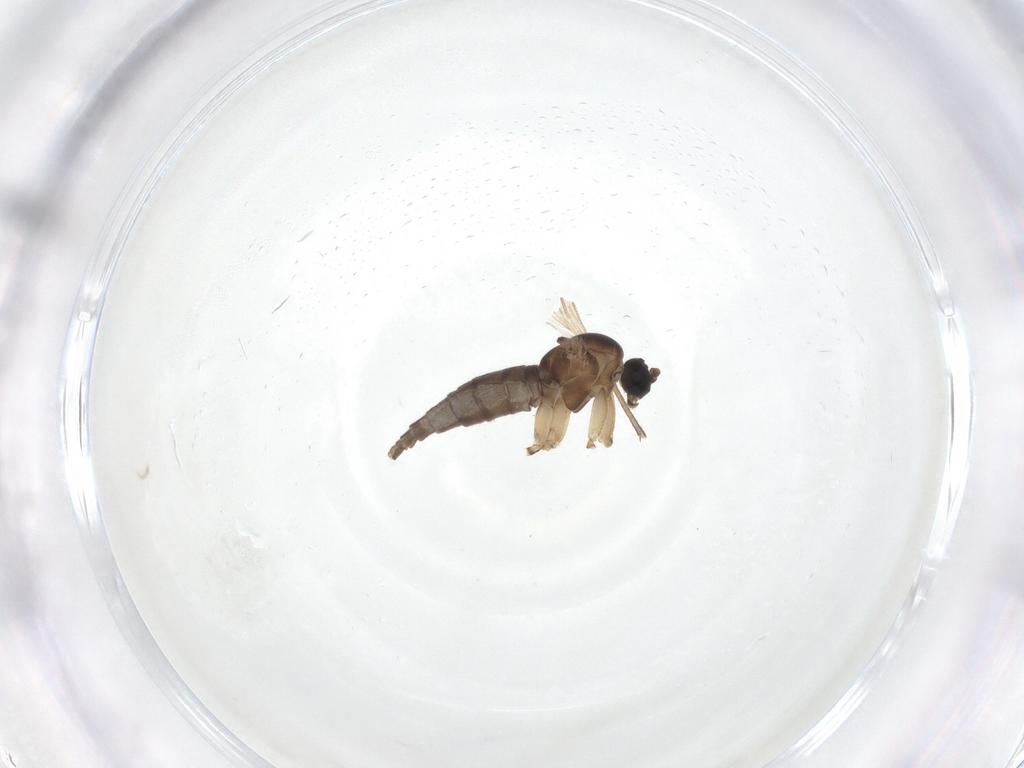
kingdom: Animalia
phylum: Arthropoda
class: Insecta
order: Diptera
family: Sciaridae
